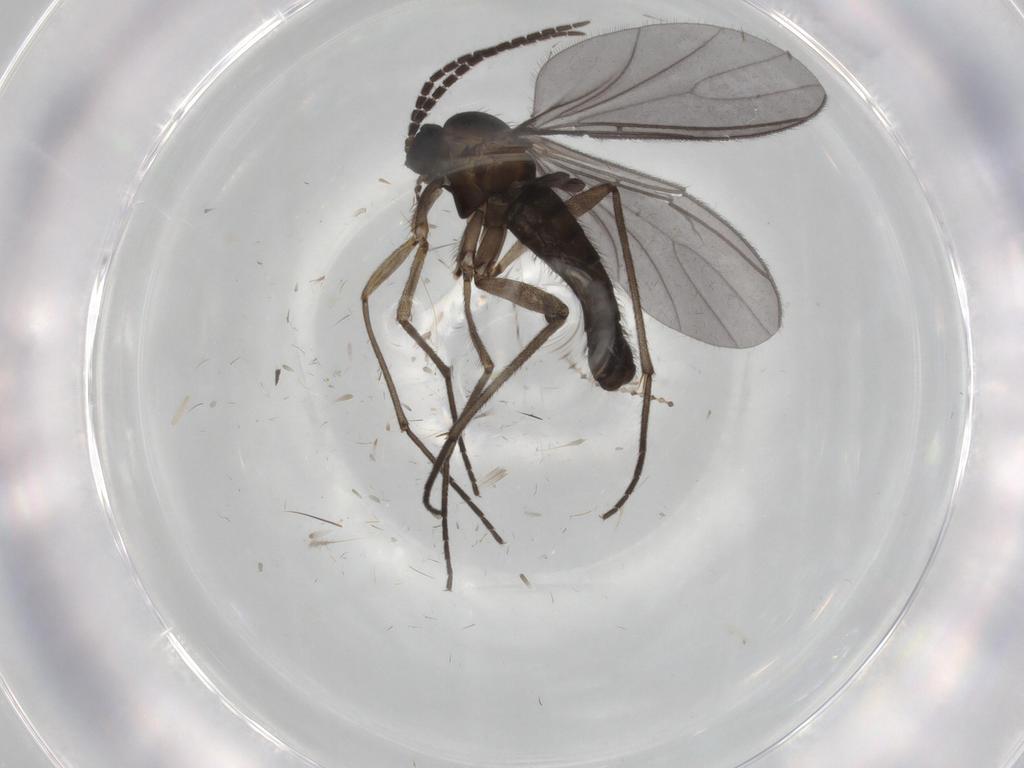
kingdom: Animalia
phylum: Arthropoda
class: Insecta
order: Diptera
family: Sciaridae
